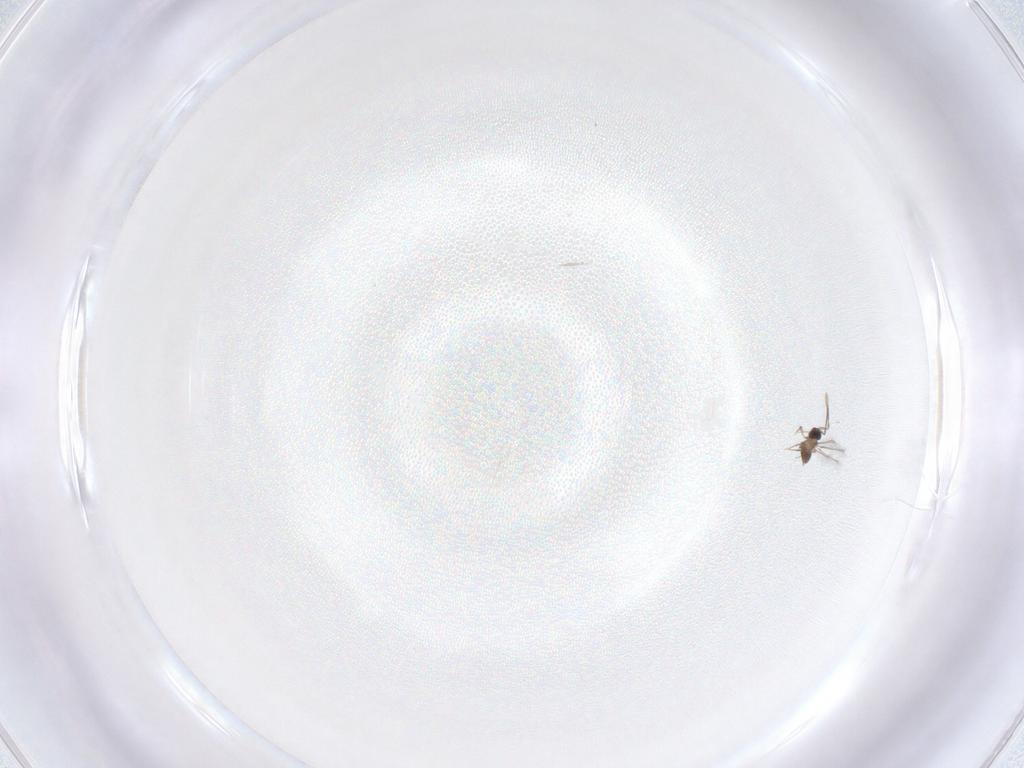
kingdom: Animalia
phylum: Arthropoda
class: Insecta
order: Hymenoptera
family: Mymaridae
